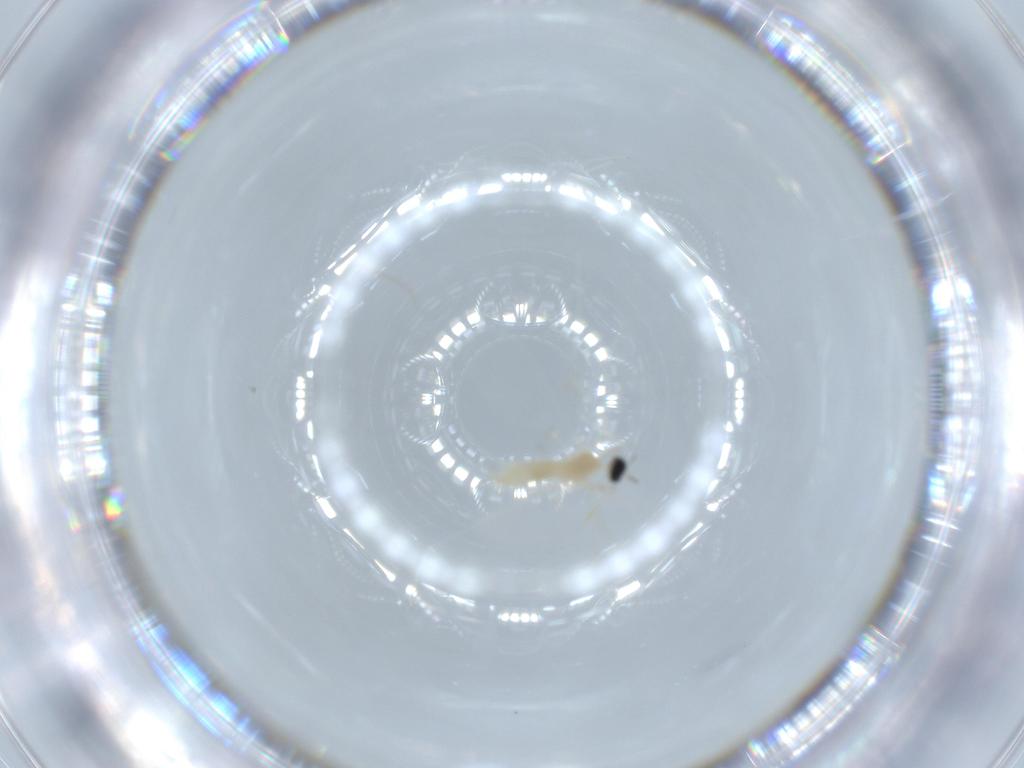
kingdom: Animalia
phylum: Arthropoda
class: Insecta
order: Diptera
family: Cecidomyiidae
